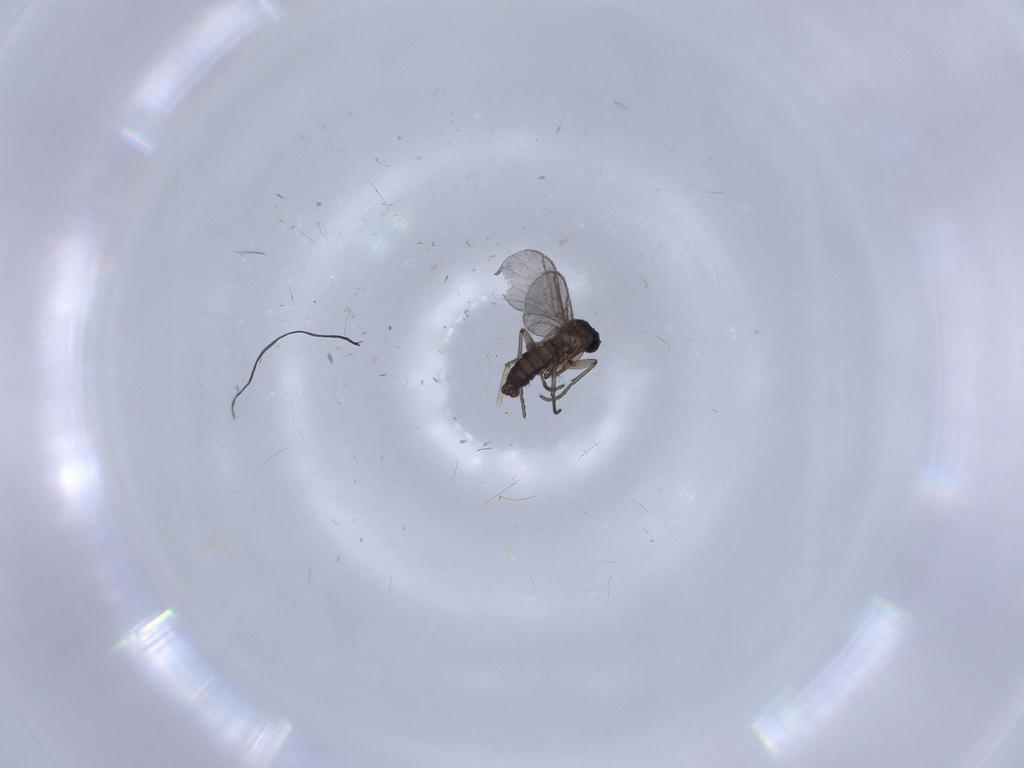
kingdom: Animalia
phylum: Arthropoda
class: Insecta
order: Diptera
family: Chironomidae
